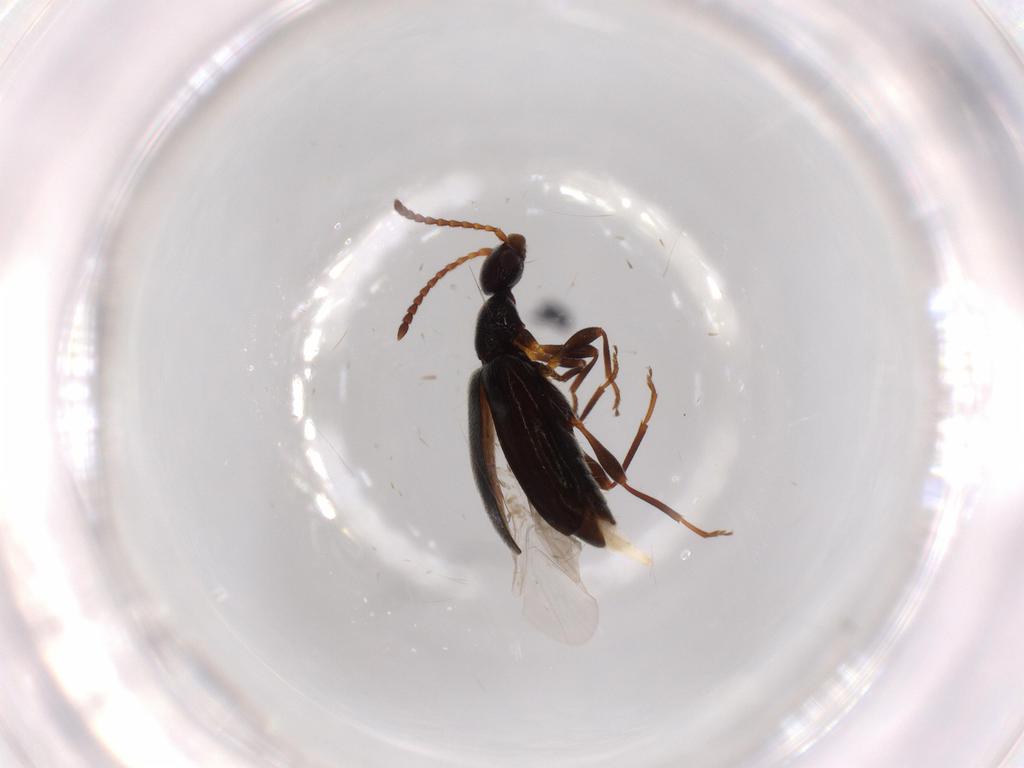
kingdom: Animalia
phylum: Arthropoda
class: Insecta
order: Coleoptera
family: Anthicidae
